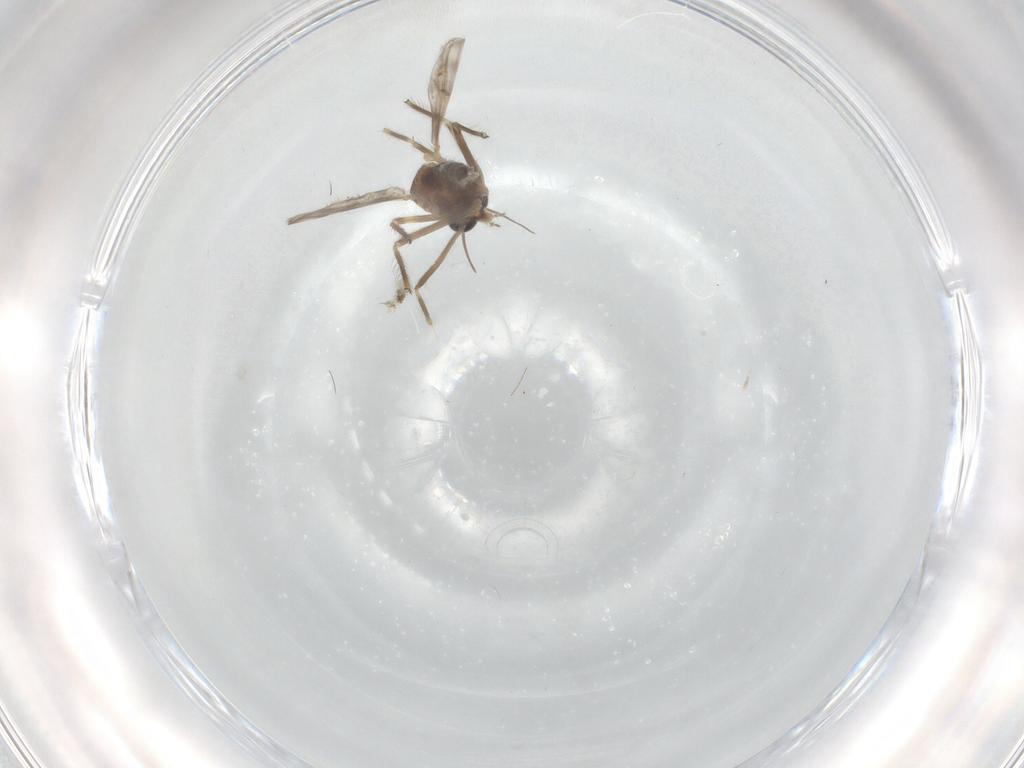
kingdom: Animalia
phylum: Arthropoda
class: Insecta
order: Diptera
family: Chironomidae
